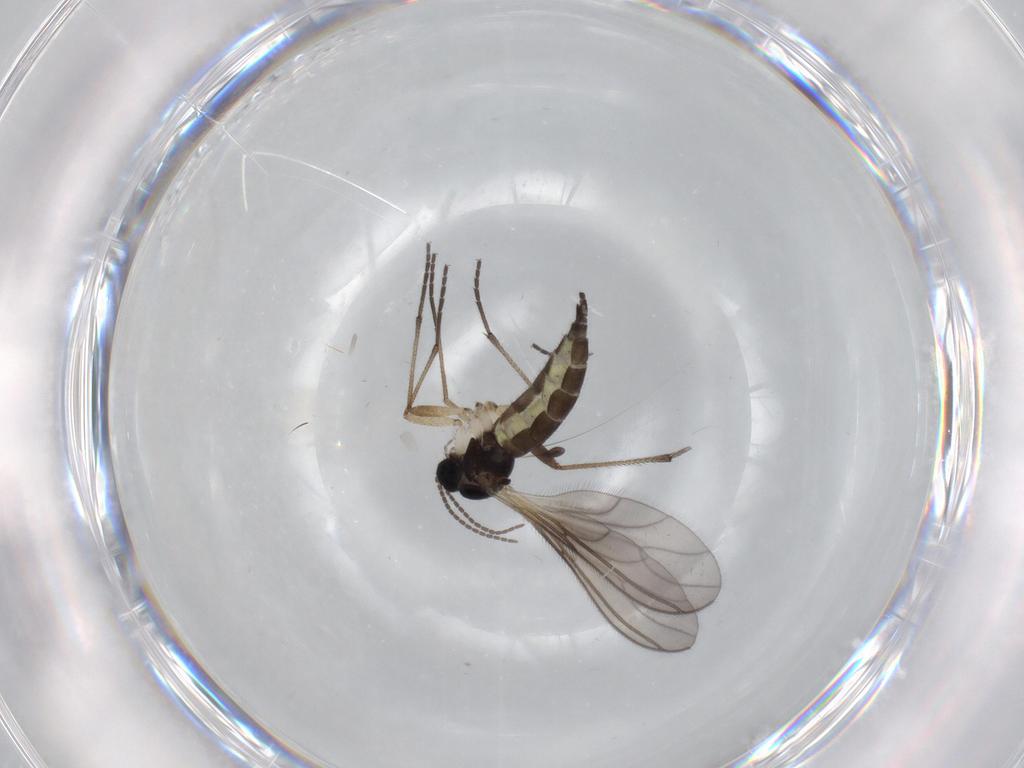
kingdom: Animalia
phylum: Arthropoda
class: Insecta
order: Diptera
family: Sciaridae
